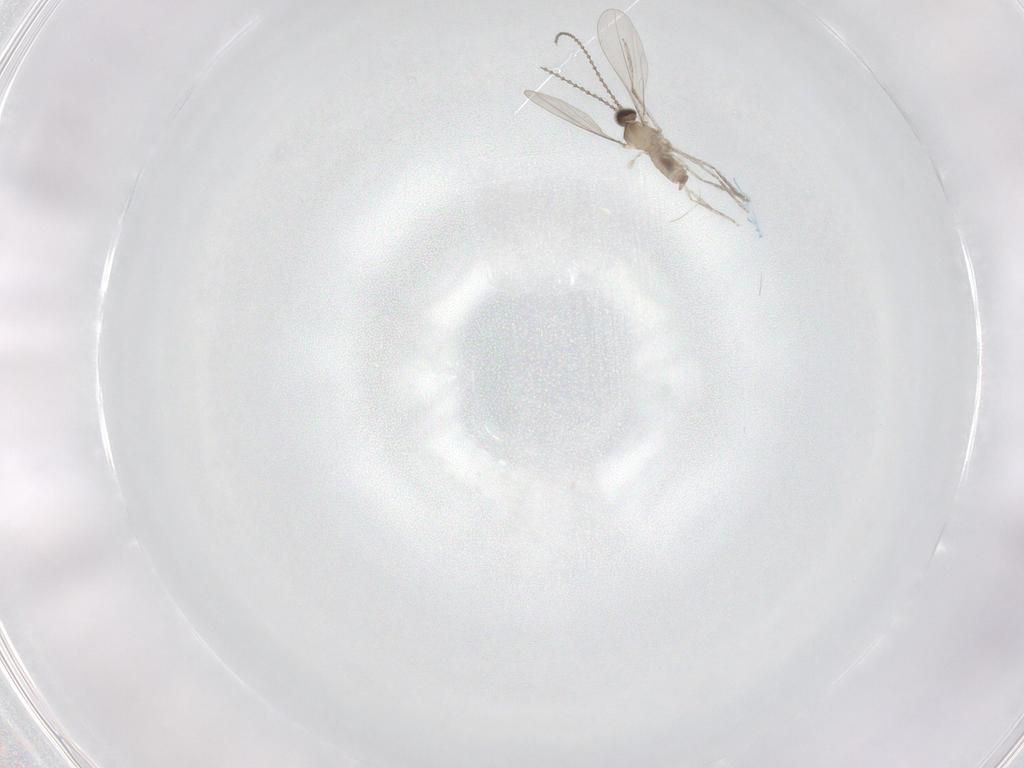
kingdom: Animalia
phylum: Arthropoda
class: Insecta
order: Diptera
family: Cecidomyiidae
